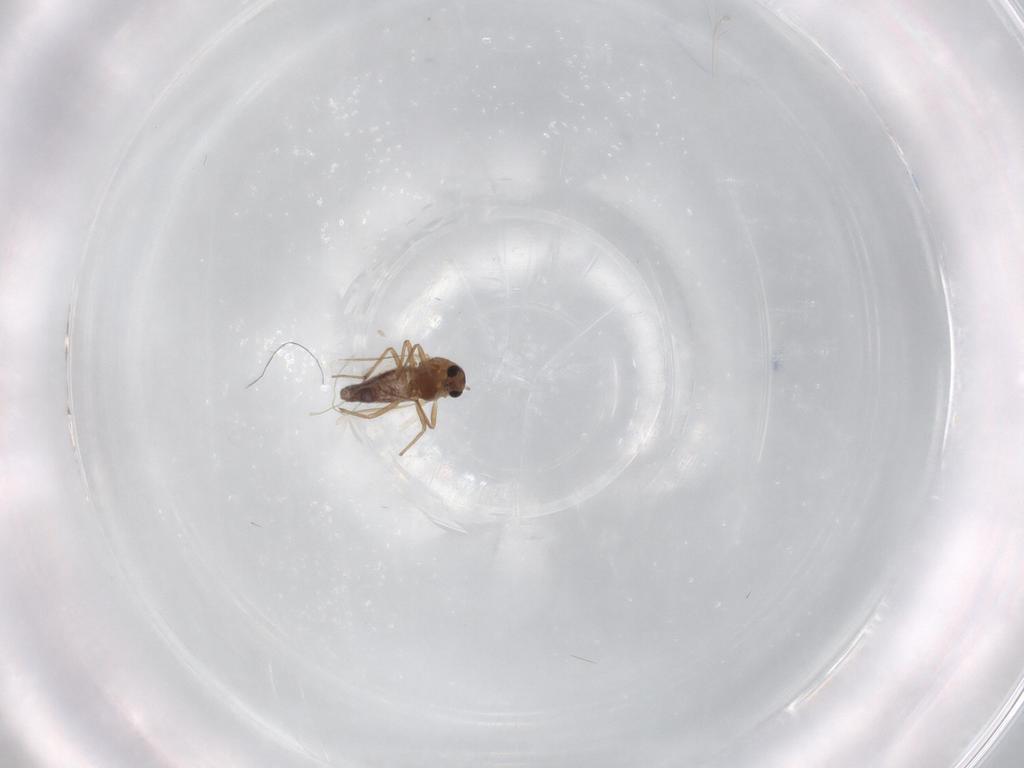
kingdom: Animalia
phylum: Arthropoda
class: Insecta
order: Diptera
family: Chironomidae
